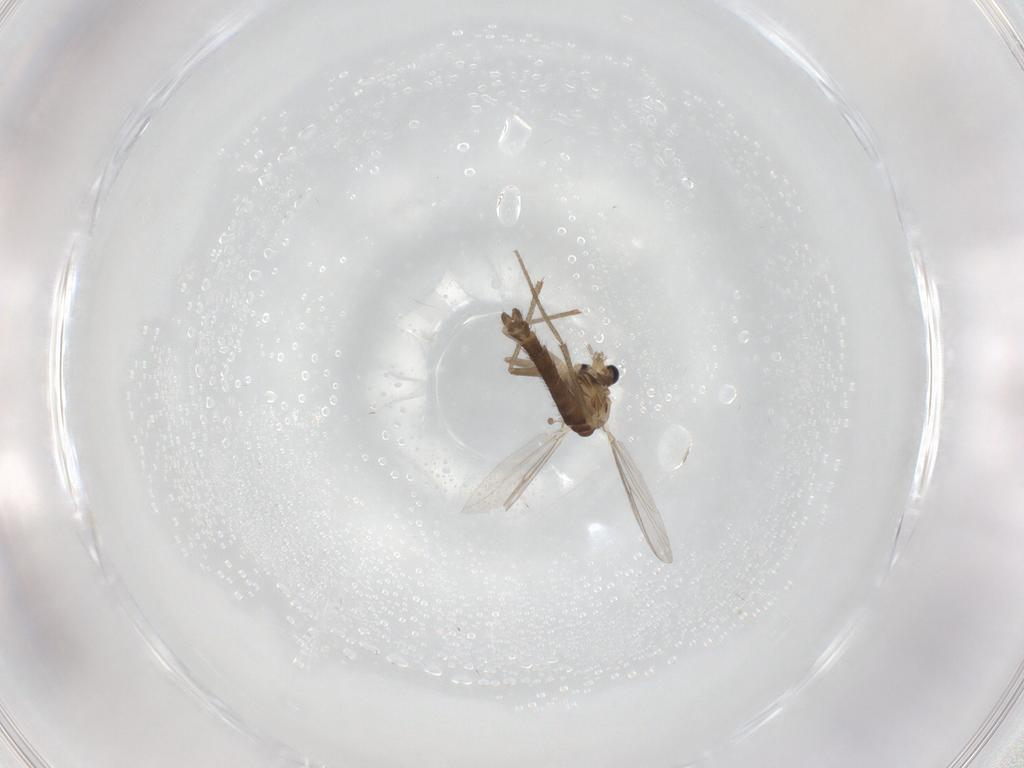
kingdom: Animalia
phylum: Arthropoda
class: Insecta
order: Diptera
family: Chironomidae
